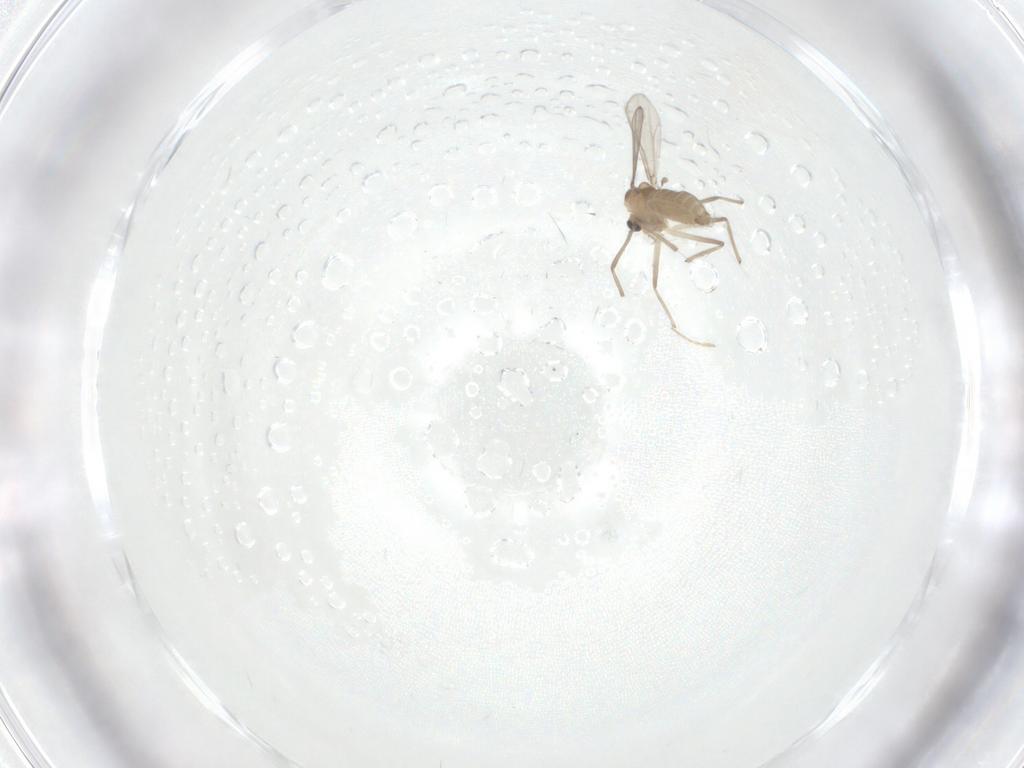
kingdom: Animalia
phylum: Arthropoda
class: Insecta
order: Diptera
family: Chironomidae
